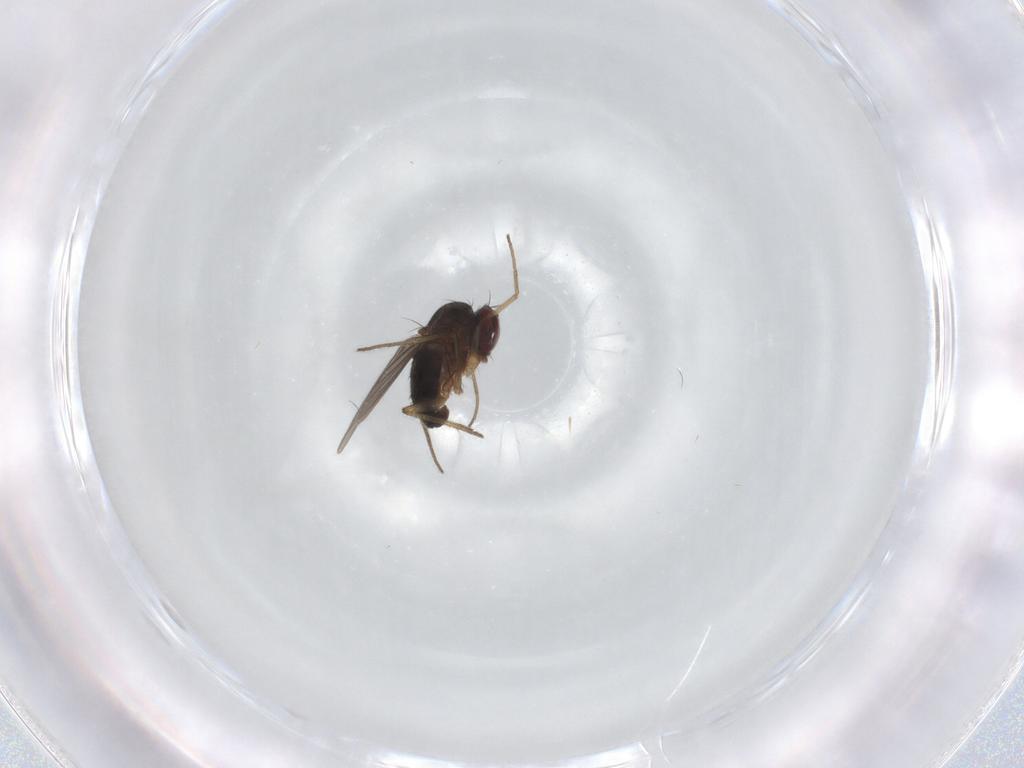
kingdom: Animalia
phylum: Arthropoda
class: Insecta
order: Diptera
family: Dolichopodidae
